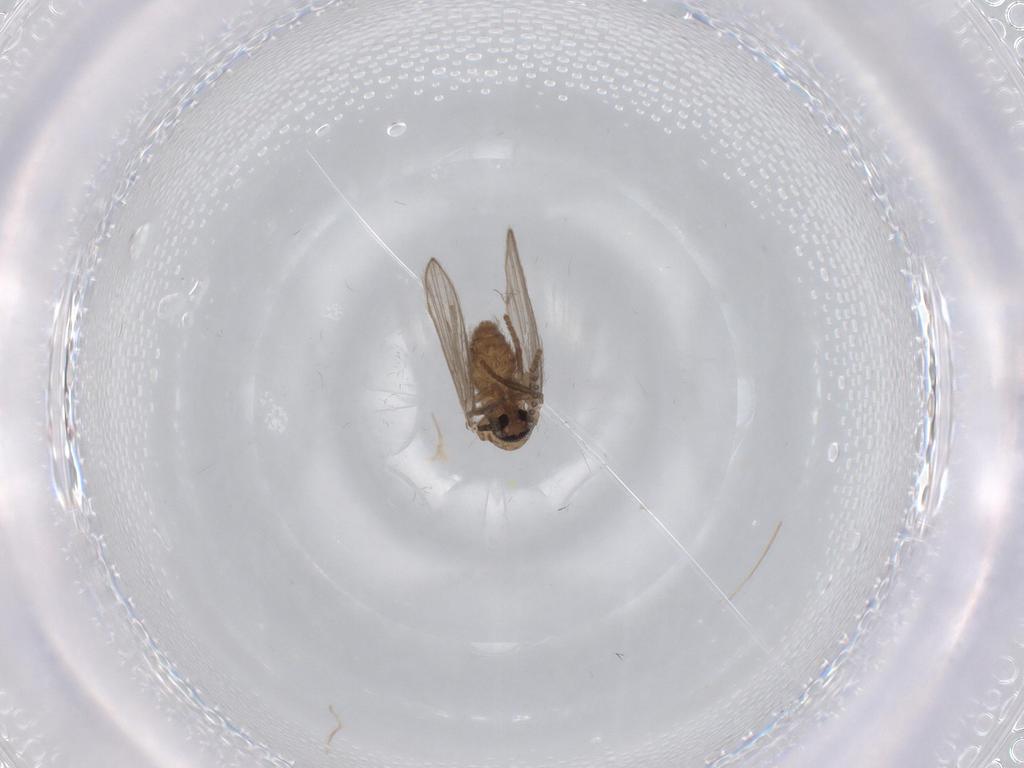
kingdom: Animalia
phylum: Arthropoda
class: Insecta
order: Diptera
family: Psychodidae
